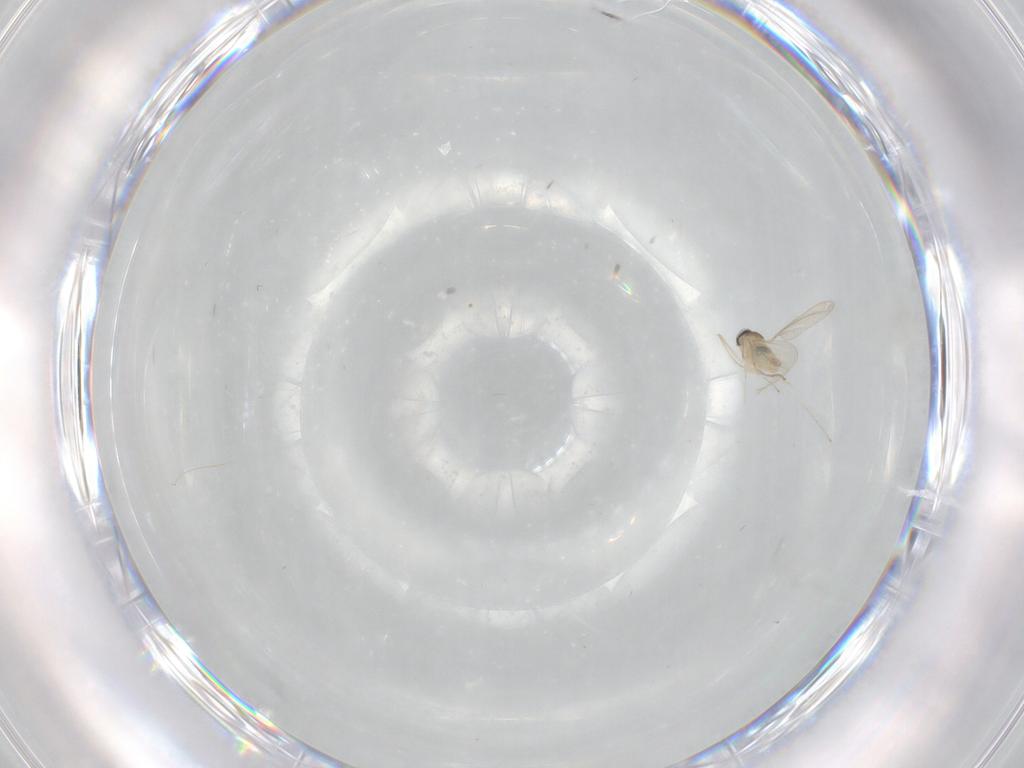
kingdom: Animalia
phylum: Arthropoda
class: Insecta
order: Diptera
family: Cecidomyiidae
